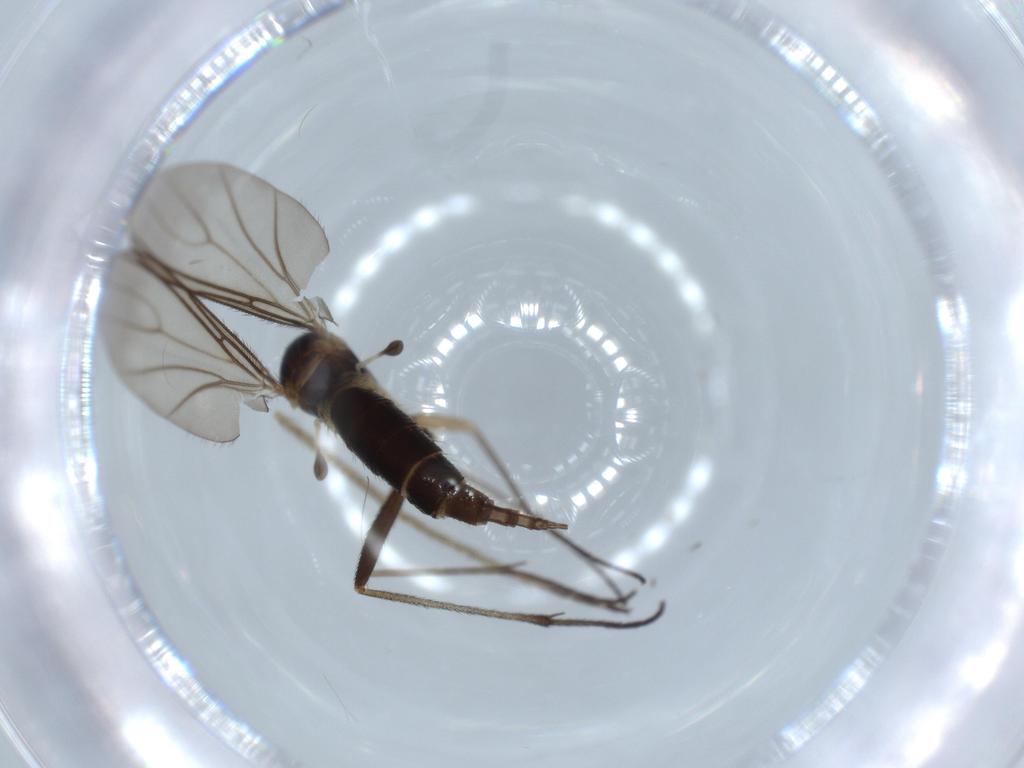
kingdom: Animalia
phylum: Arthropoda
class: Insecta
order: Diptera
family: Sciaridae
